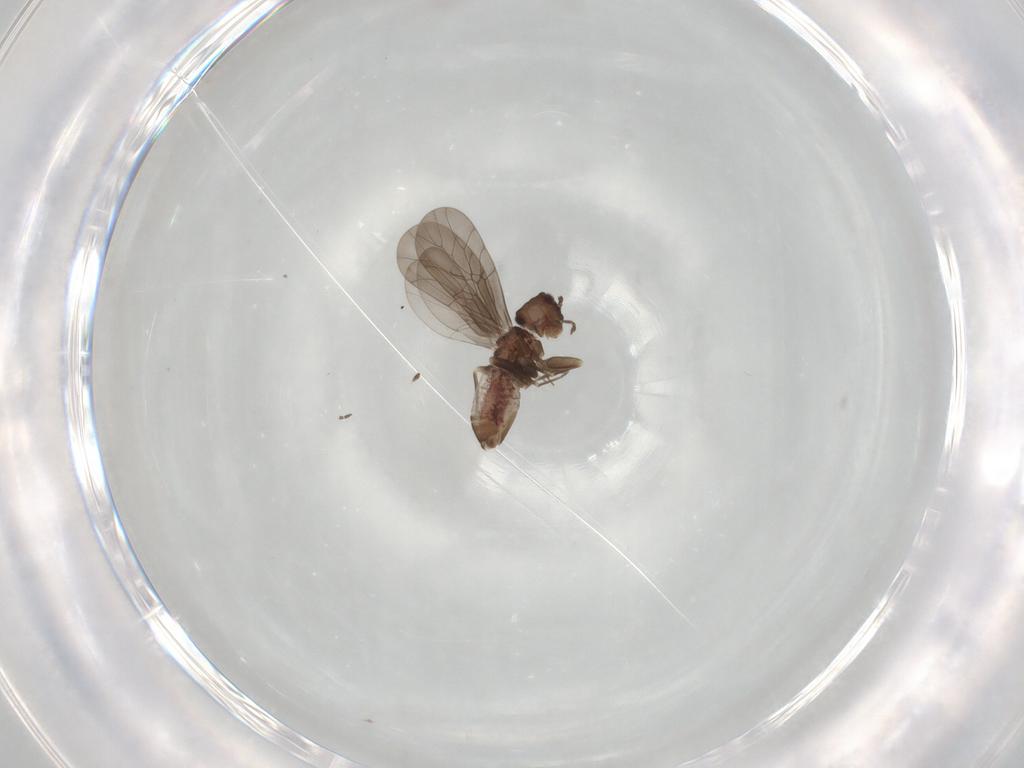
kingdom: Animalia
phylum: Arthropoda
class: Insecta
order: Psocodea
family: Lepidopsocidae
